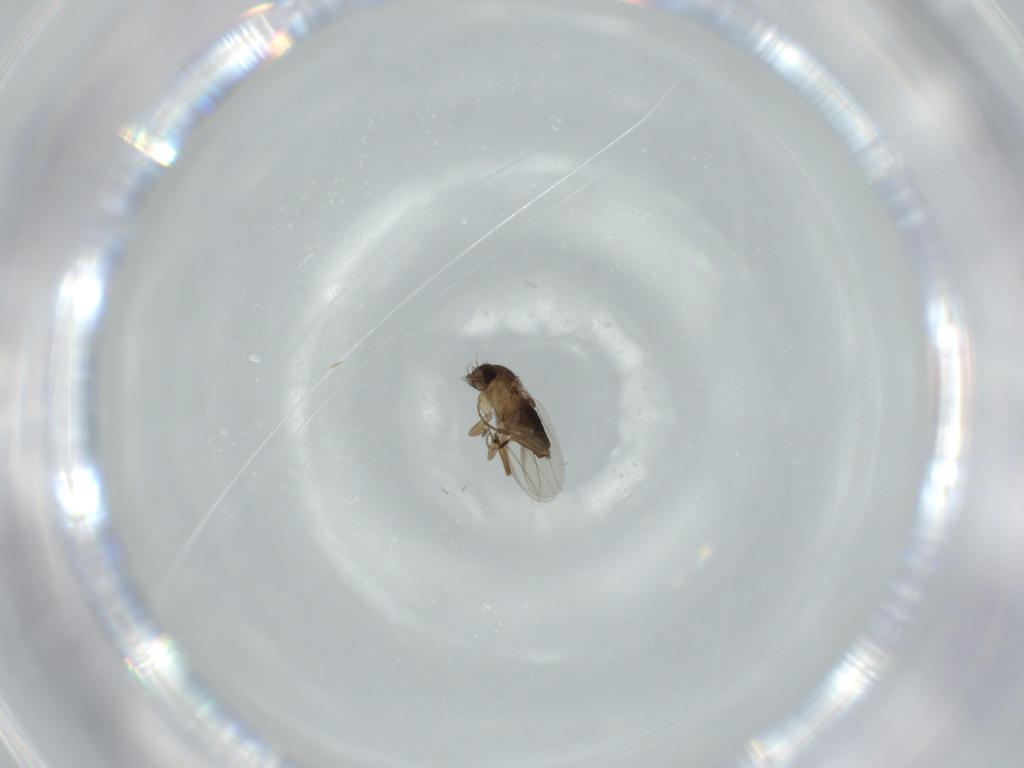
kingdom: Animalia
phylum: Arthropoda
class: Insecta
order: Diptera
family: Phoridae
